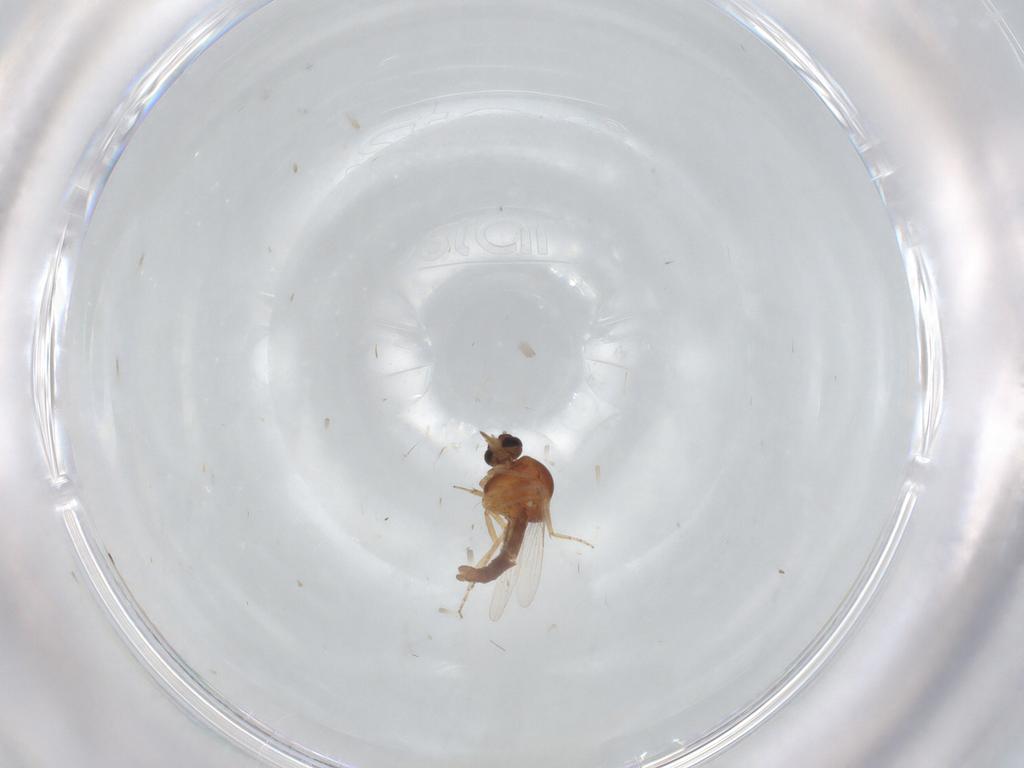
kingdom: Animalia
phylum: Arthropoda
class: Insecta
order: Diptera
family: Ceratopogonidae
